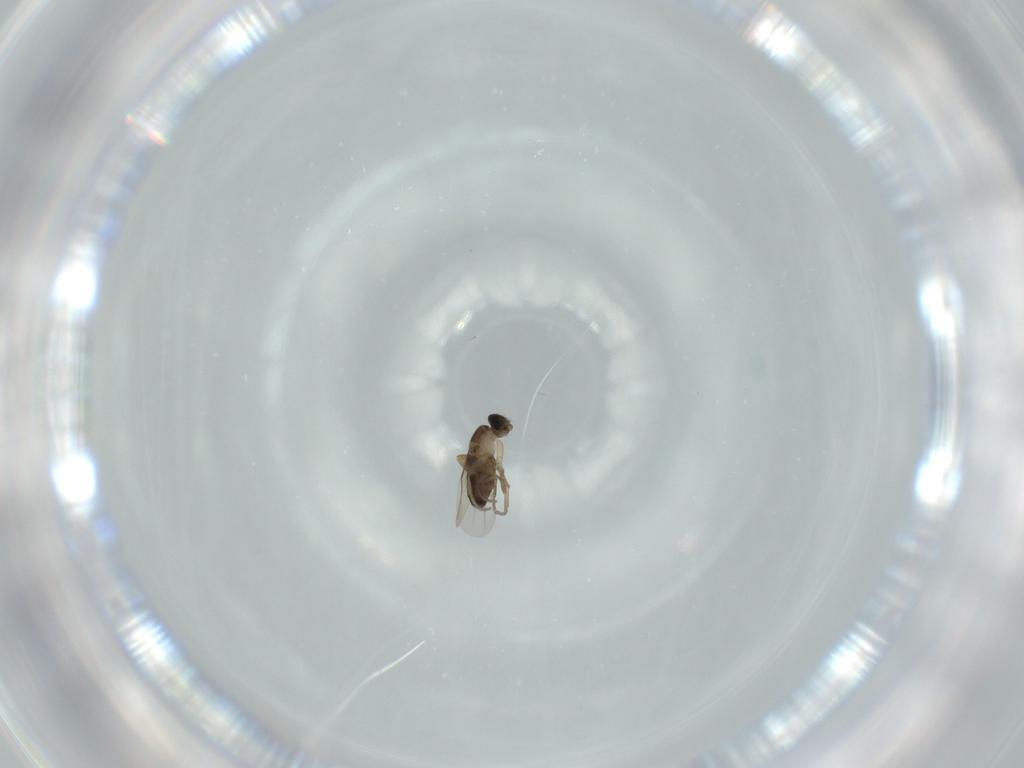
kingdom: Animalia
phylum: Arthropoda
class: Insecta
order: Diptera
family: Phoridae
